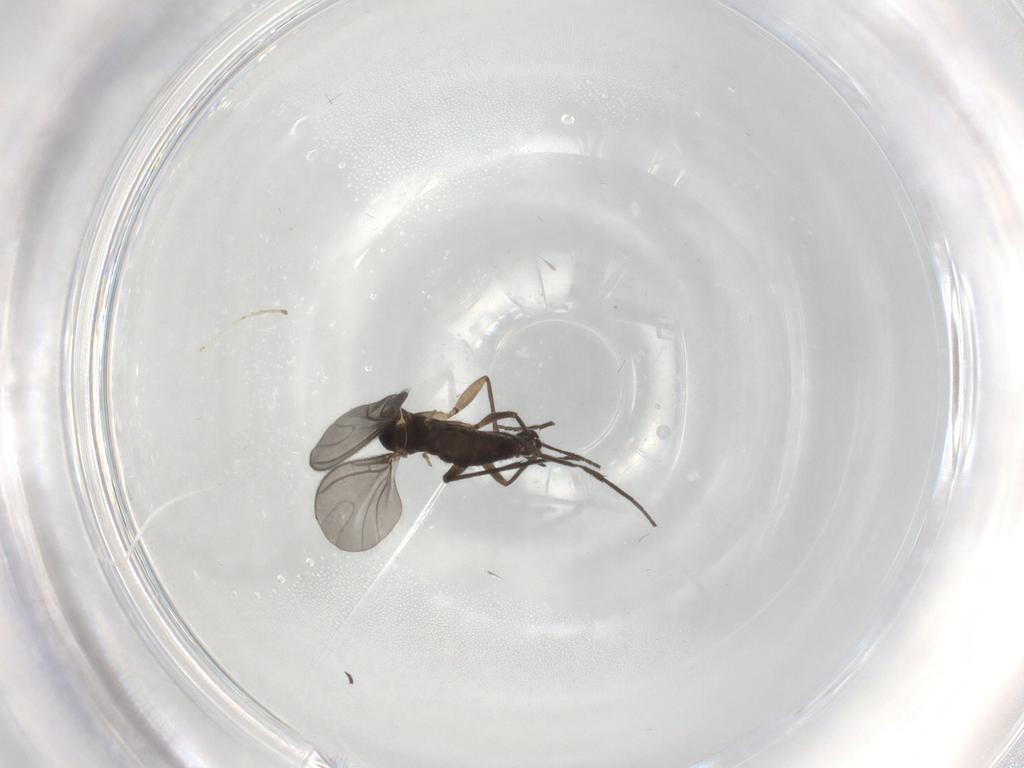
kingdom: Animalia
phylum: Arthropoda
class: Insecta
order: Diptera
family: Sciaridae
